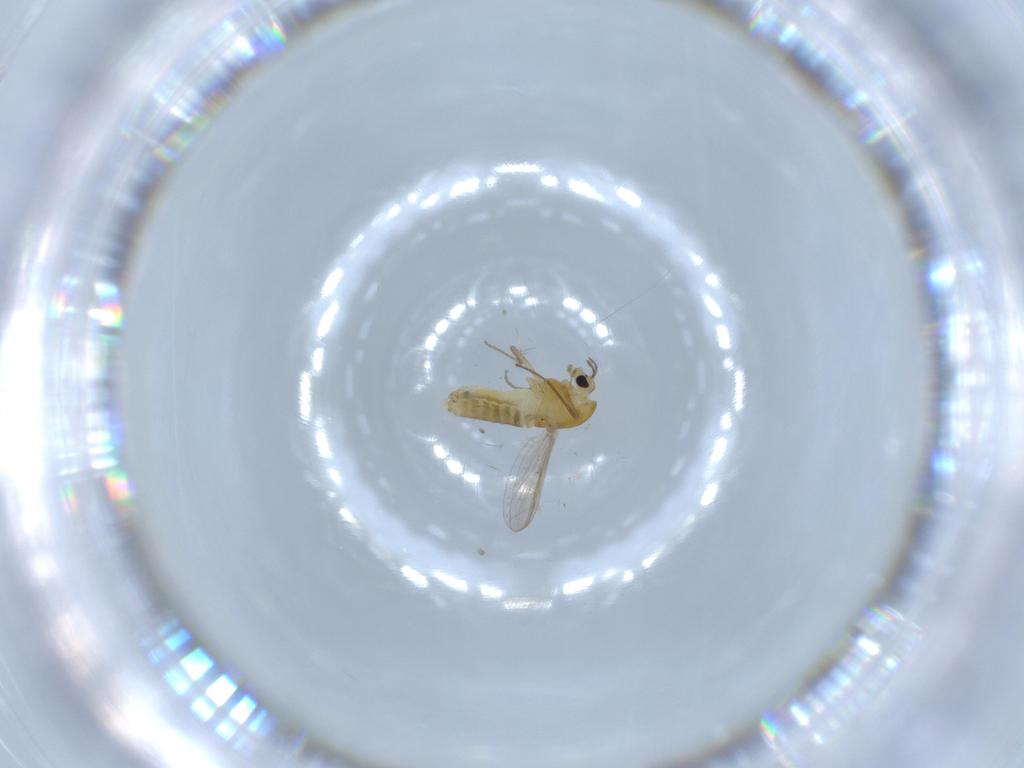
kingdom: Animalia
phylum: Arthropoda
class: Insecta
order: Diptera
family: Chironomidae
